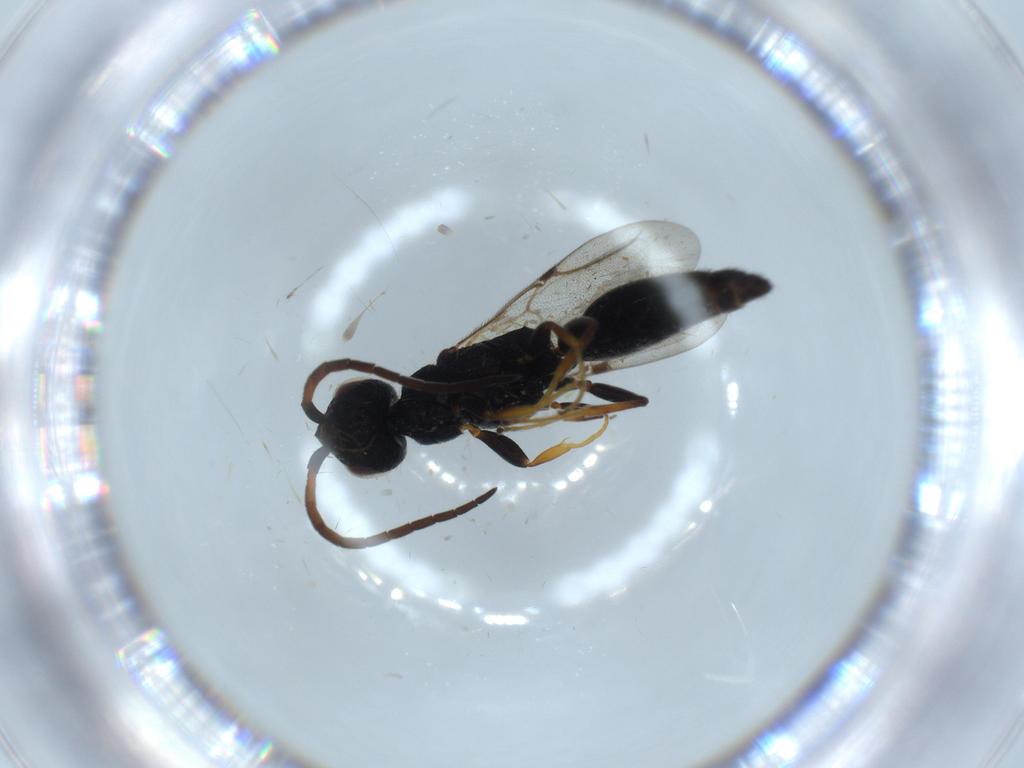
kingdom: Animalia
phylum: Arthropoda
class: Insecta
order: Hymenoptera
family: Bethylidae
